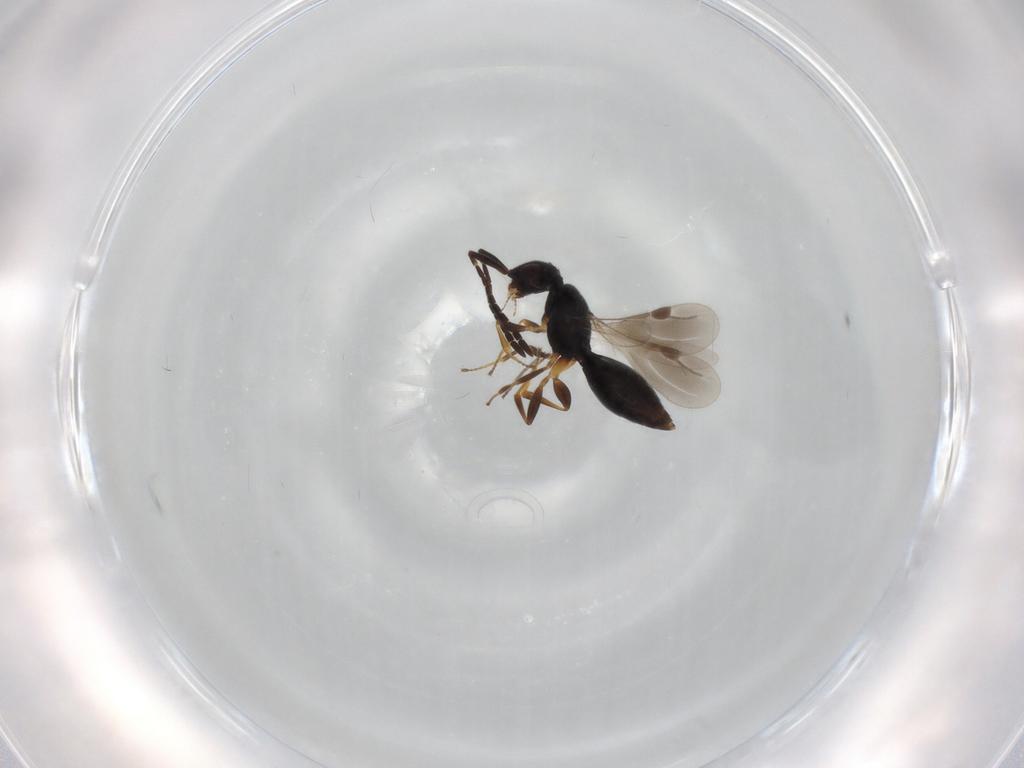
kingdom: Animalia
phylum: Arthropoda
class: Insecta
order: Hymenoptera
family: Megaspilidae
